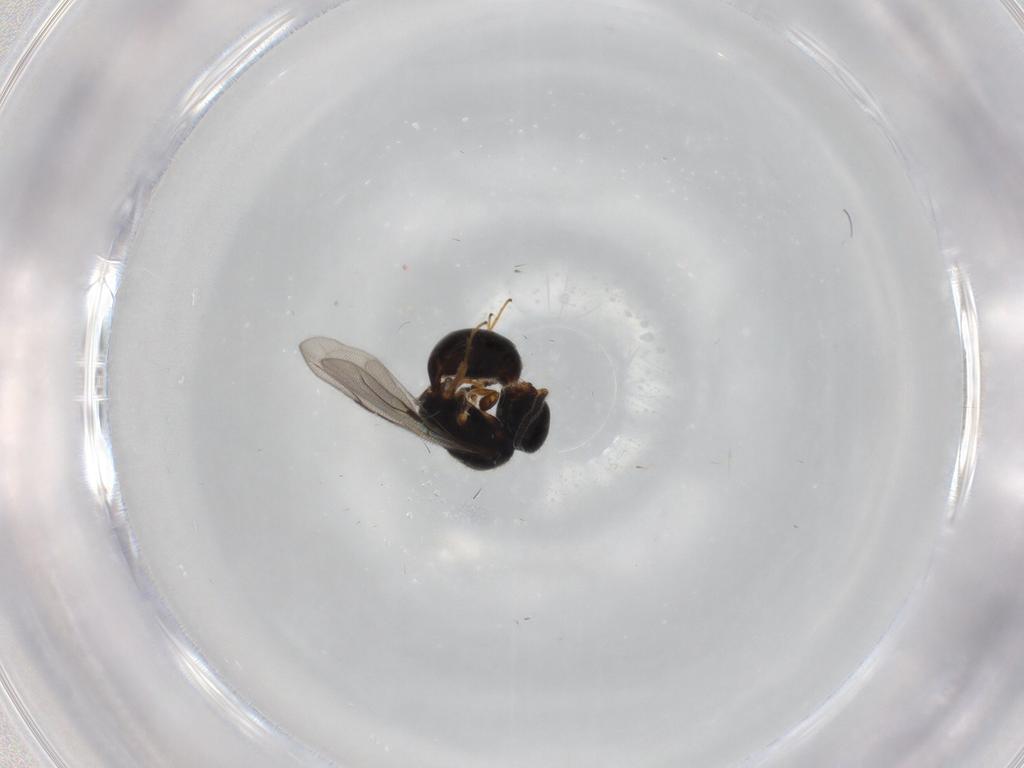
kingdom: Animalia
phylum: Arthropoda
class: Insecta
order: Hymenoptera
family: Bethylidae
